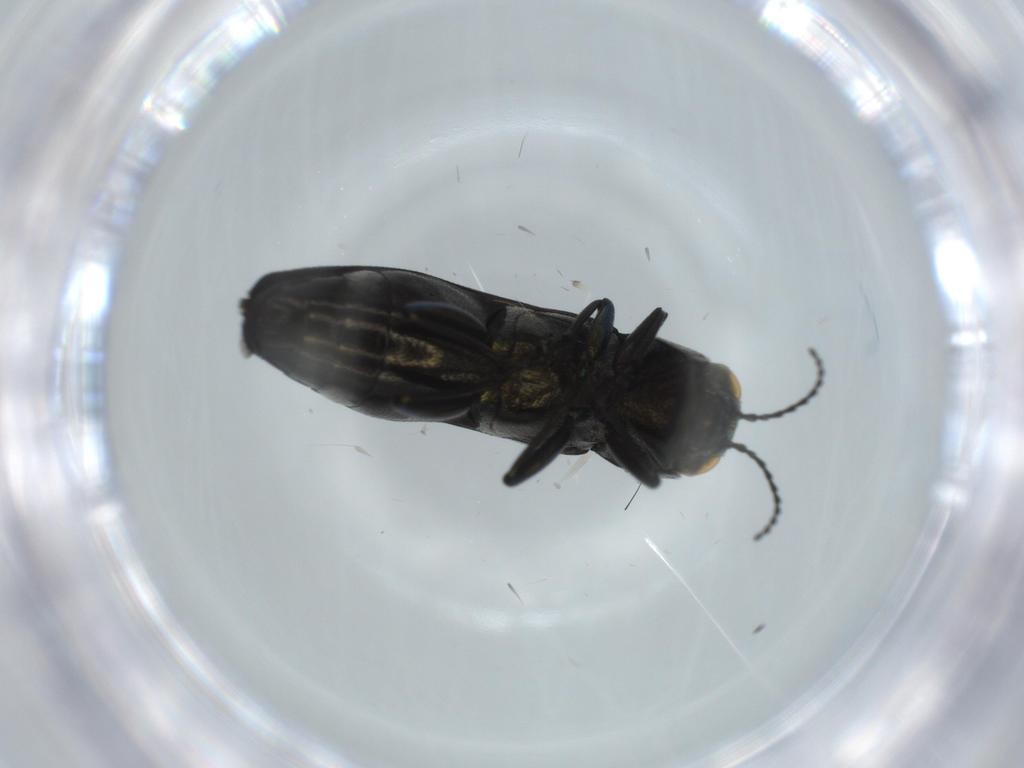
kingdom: Animalia
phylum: Arthropoda
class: Insecta
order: Coleoptera
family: Buprestidae
